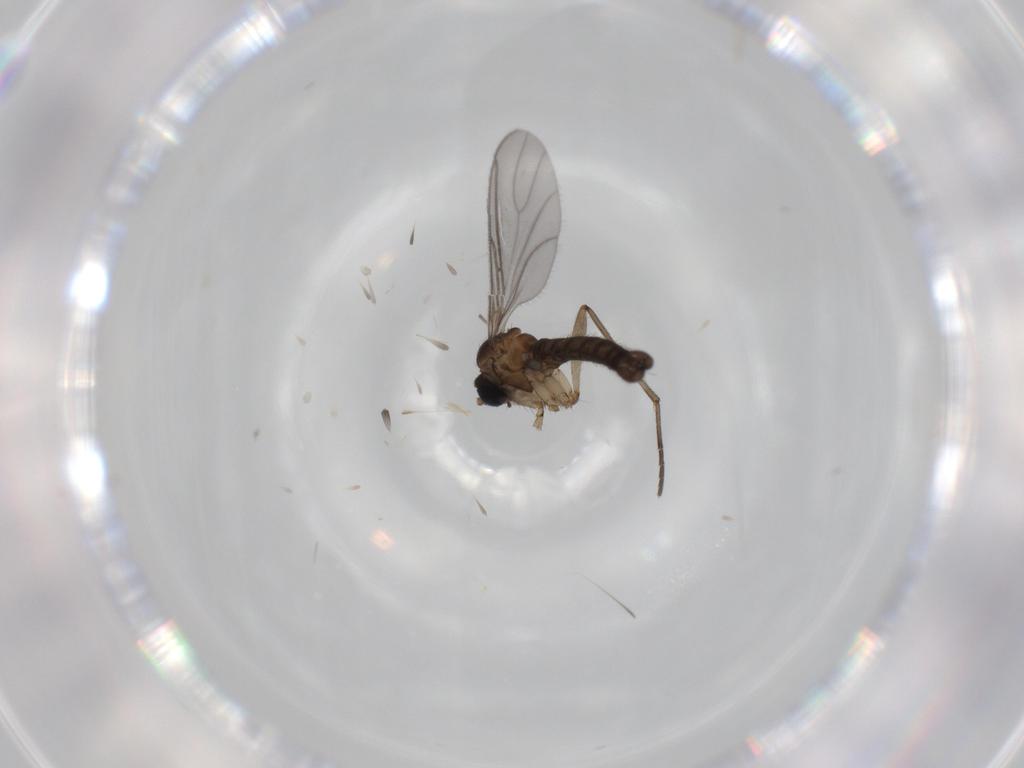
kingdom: Animalia
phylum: Arthropoda
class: Insecta
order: Diptera
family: Sciaridae
